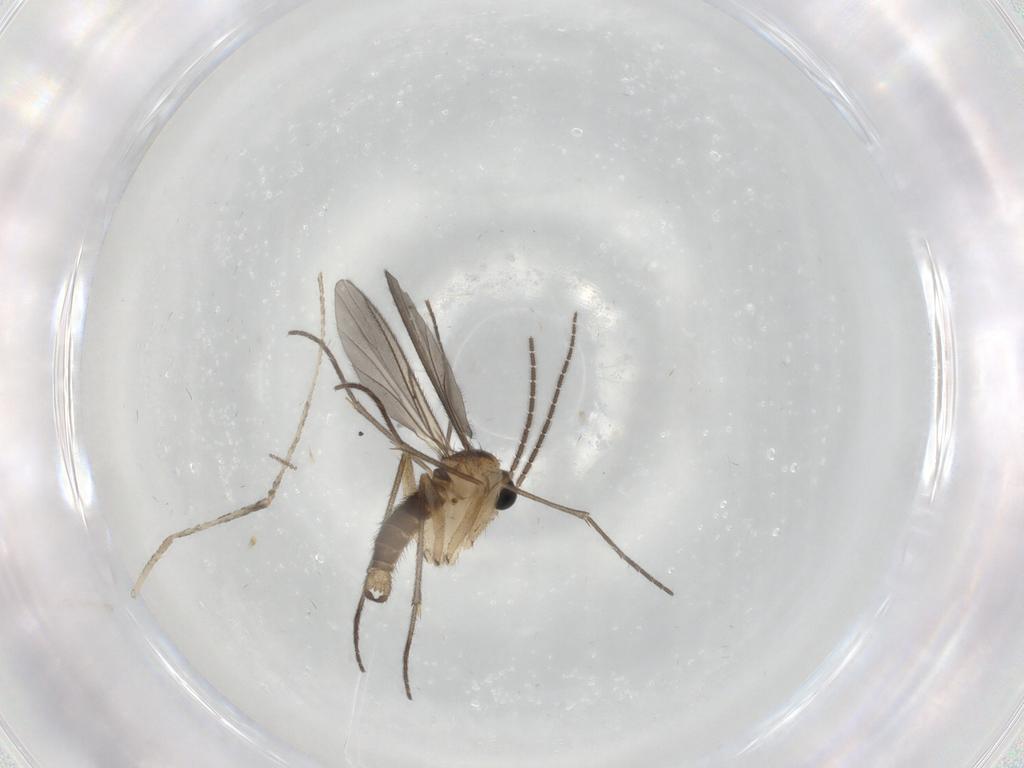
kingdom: Animalia
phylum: Arthropoda
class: Insecta
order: Diptera
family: Sciaridae
